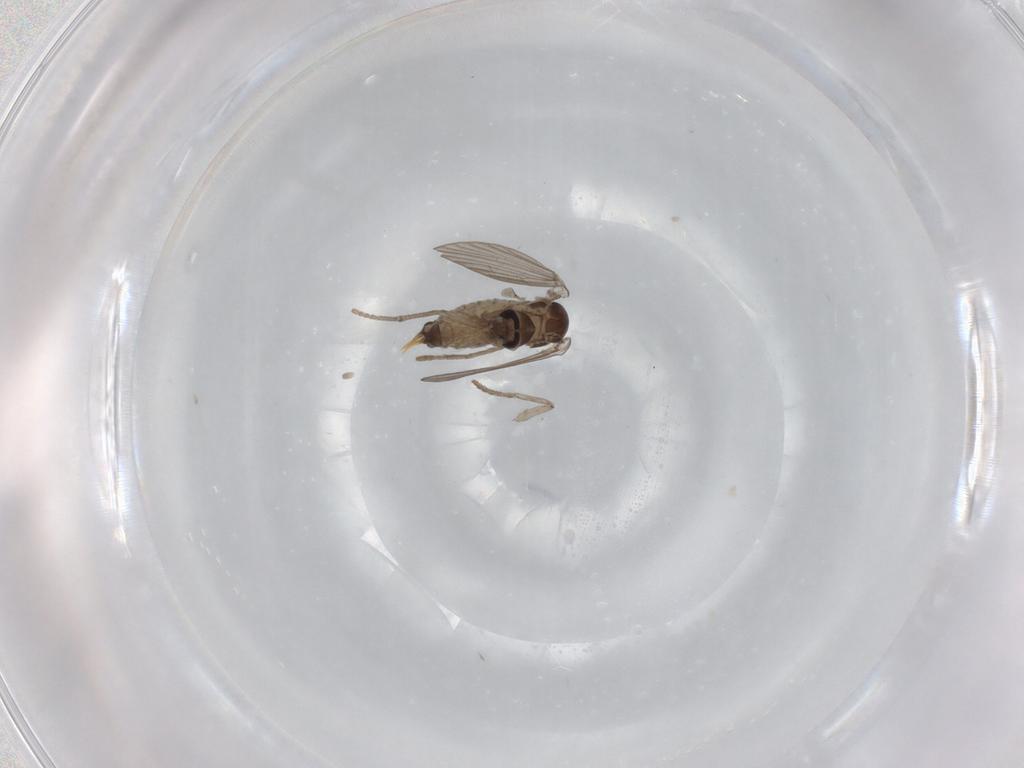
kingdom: Animalia
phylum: Arthropoda
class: Insecta
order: Diptera
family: Psychodidae
